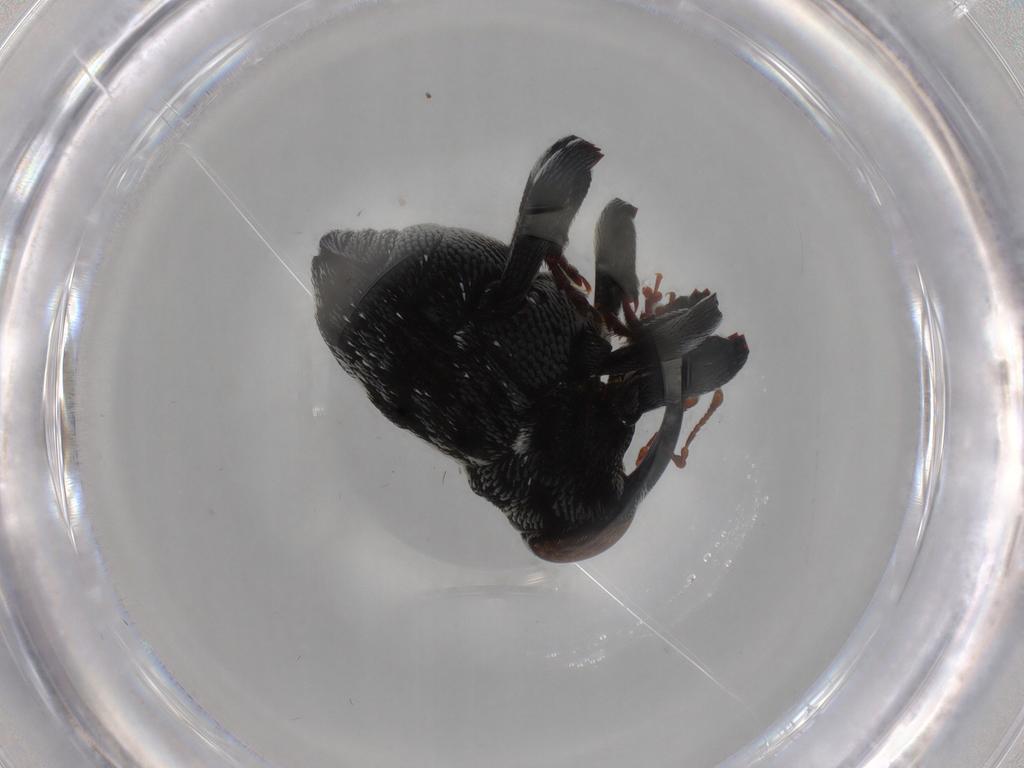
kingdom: Animalia
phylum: Arthropoda
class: Insecta
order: Coleoptera
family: Curculionidae
